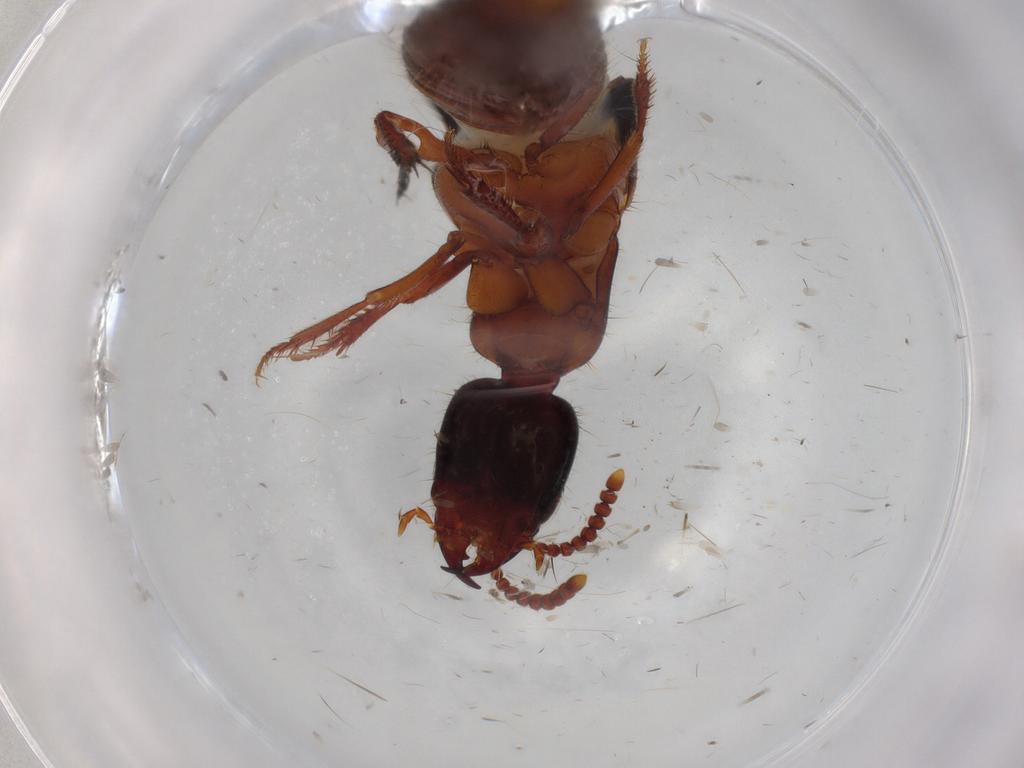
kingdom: Animalia
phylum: Arthropoda
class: Insecta
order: Coleoptera
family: Staphylinidae
